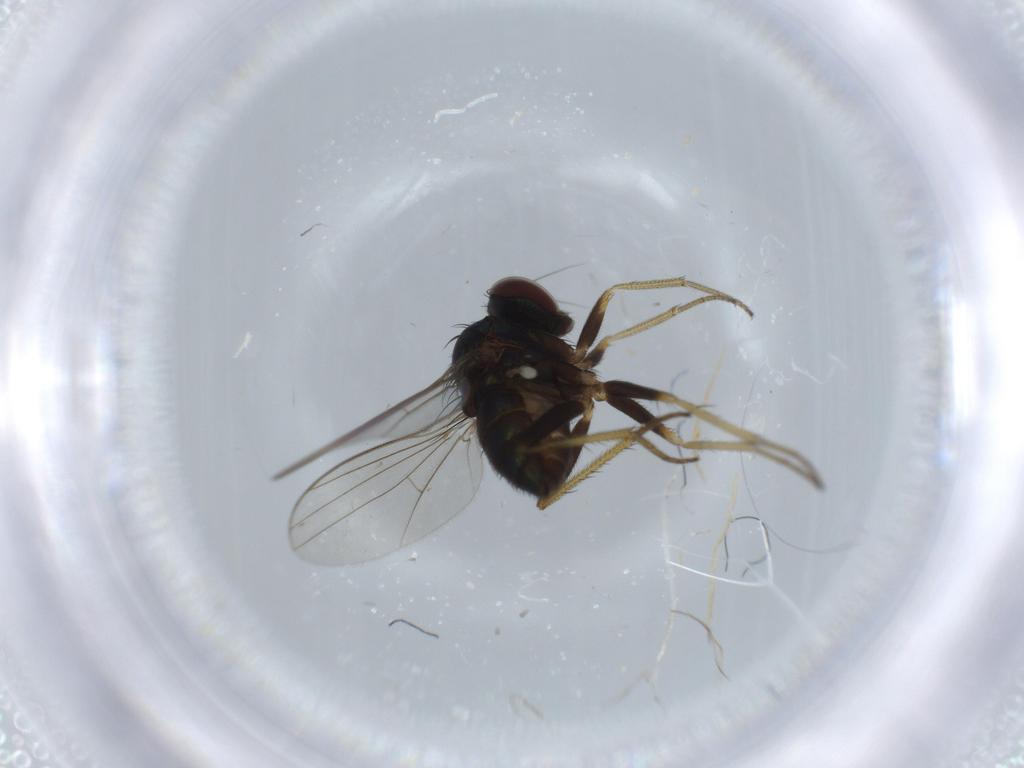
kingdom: Animalia
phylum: Arthropoda
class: Insecta
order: Diptera
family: Dolichopodidae
